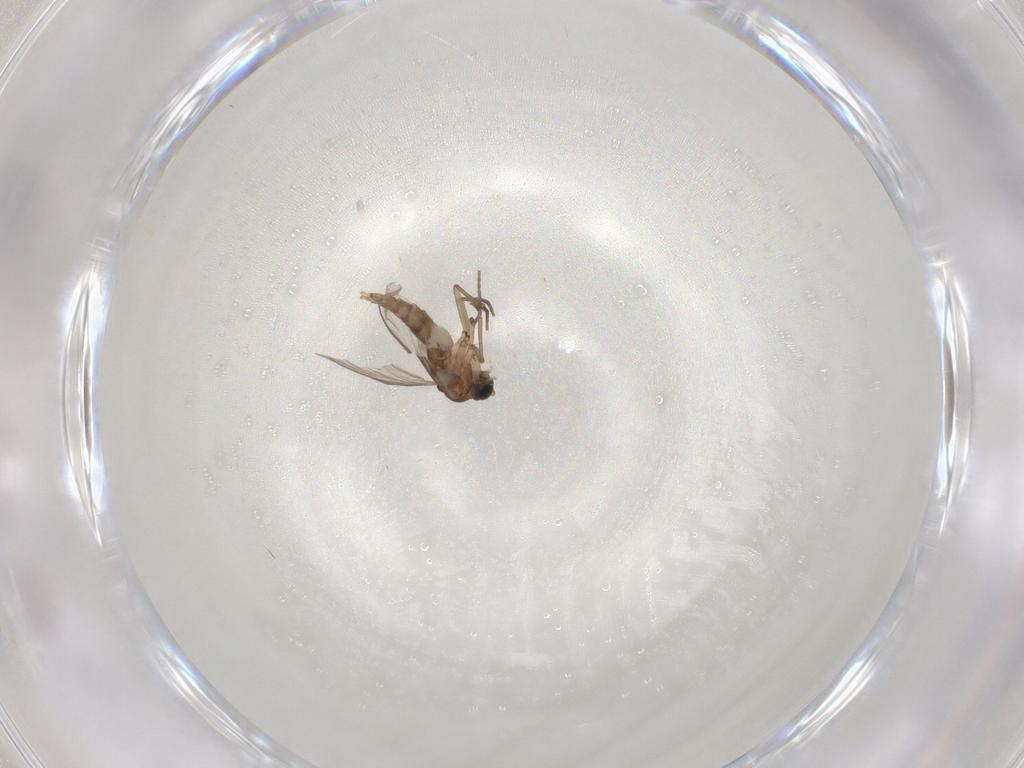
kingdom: Animalia
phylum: Arthropoda
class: Insecta
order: Diptera
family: Sciaridae
